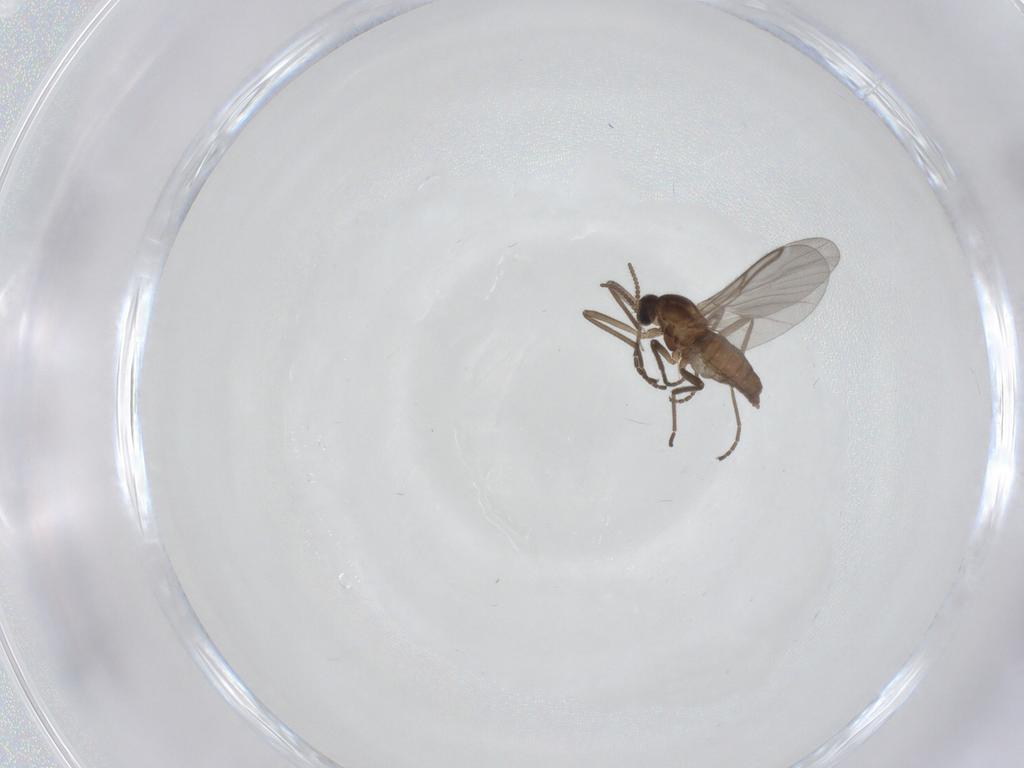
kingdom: Animalia
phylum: Arthropoda
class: Insecta
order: Diptera
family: Cecidomyiidae
